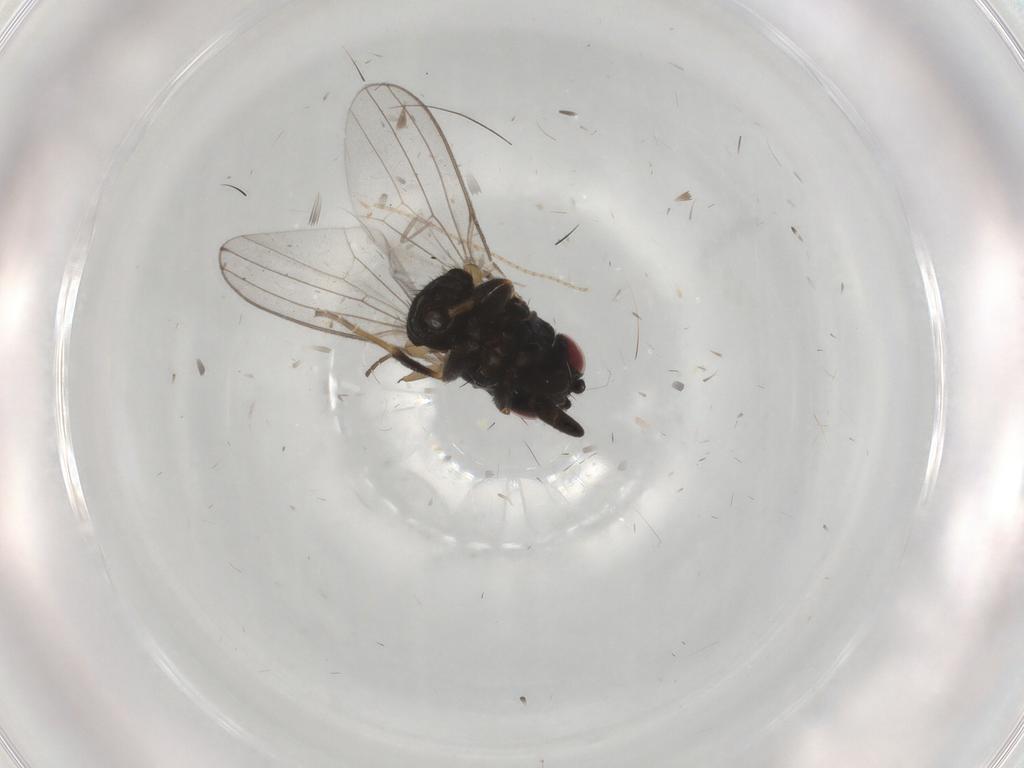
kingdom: Animalia
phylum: Arthropoda
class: Insecta
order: Diptera
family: Milichiidae
